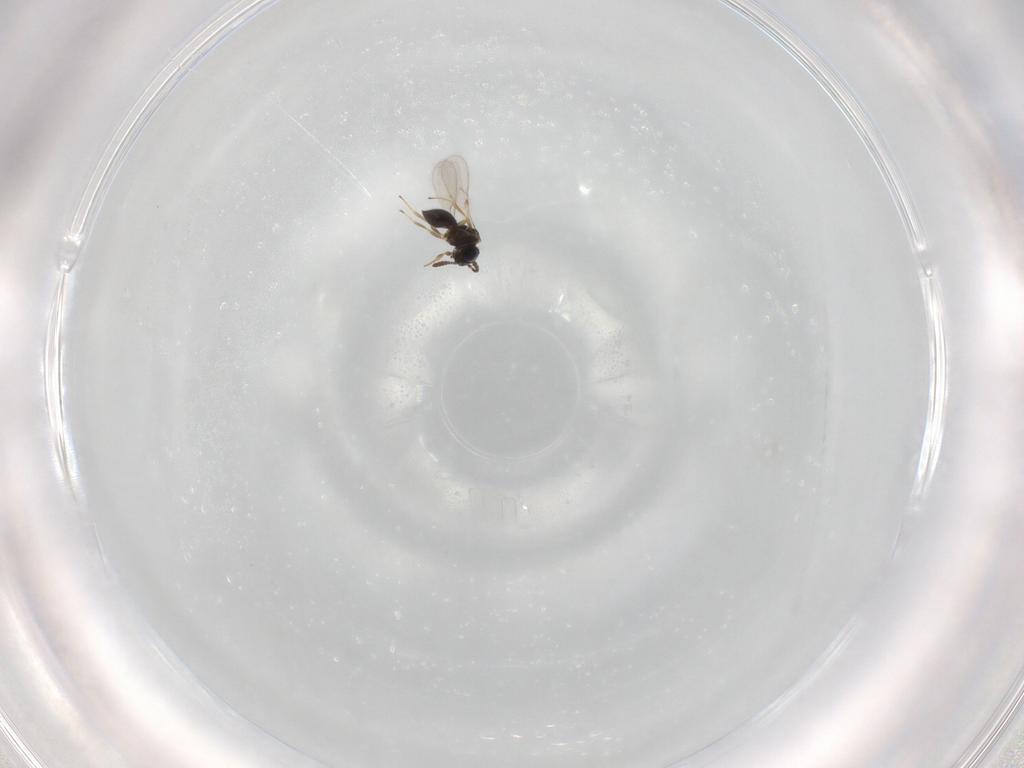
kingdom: Animalia
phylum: Arthropoda
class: Insecta
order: Hymenoptera
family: Scelionidae
